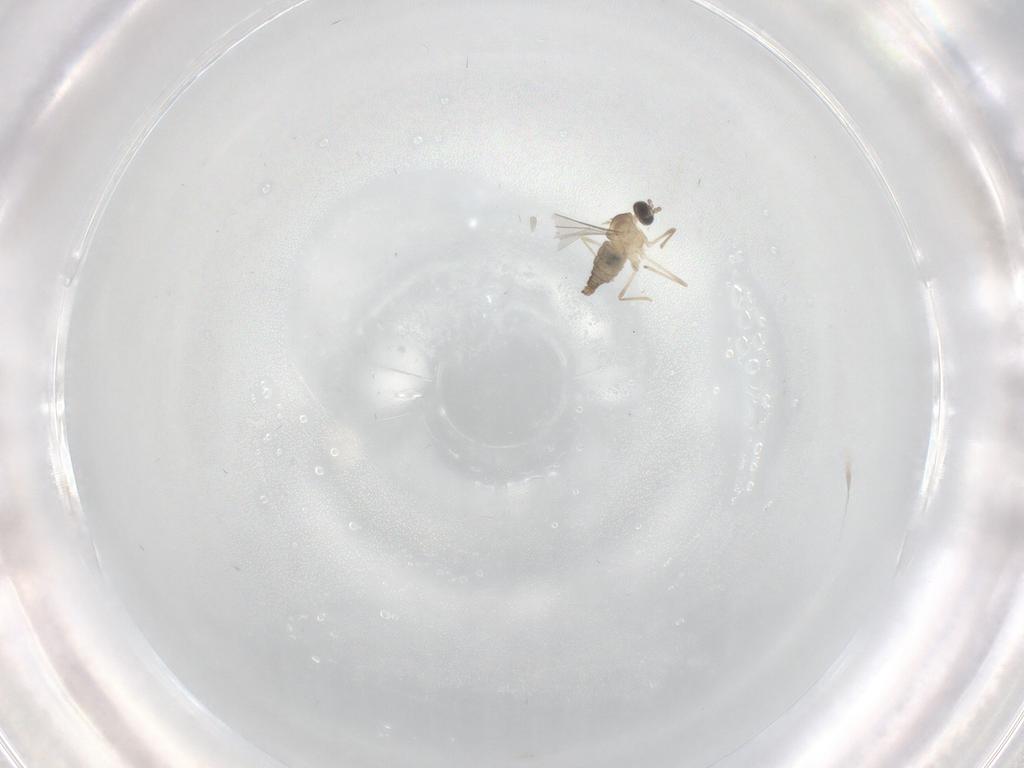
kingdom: Animalia
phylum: Arthropoda
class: Insecta
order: Diptera
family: Cecidomyiidae
